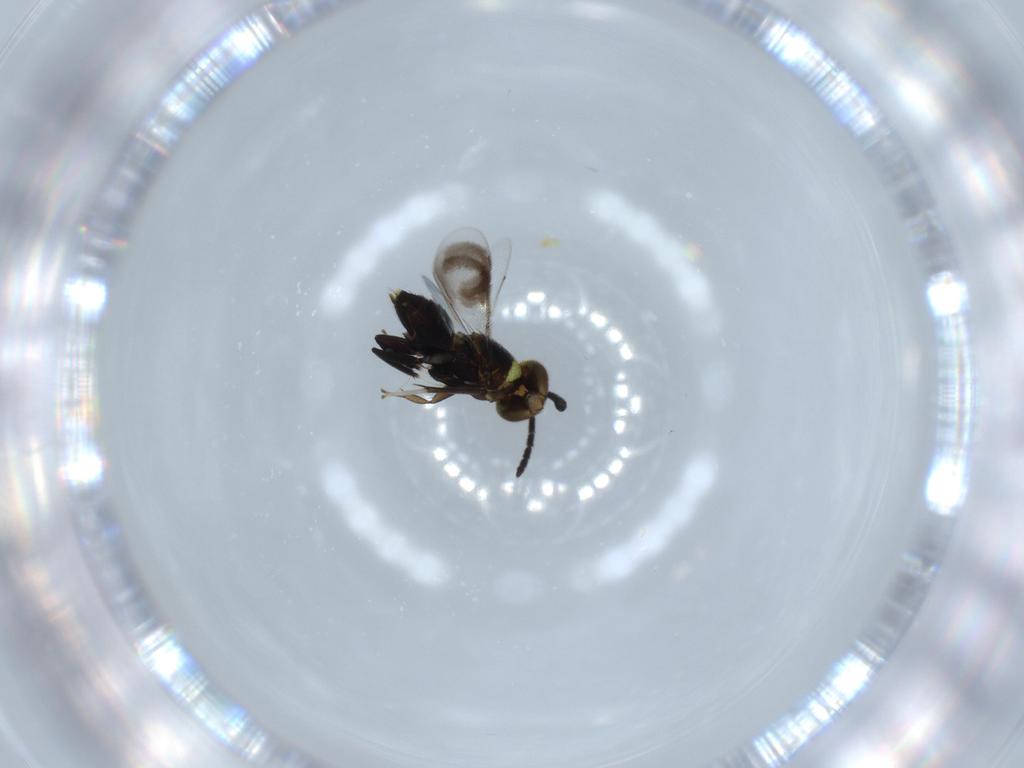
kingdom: Animalia
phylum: Arthropoda
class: Insecta
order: Hymenoptera
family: Aphelinidae
